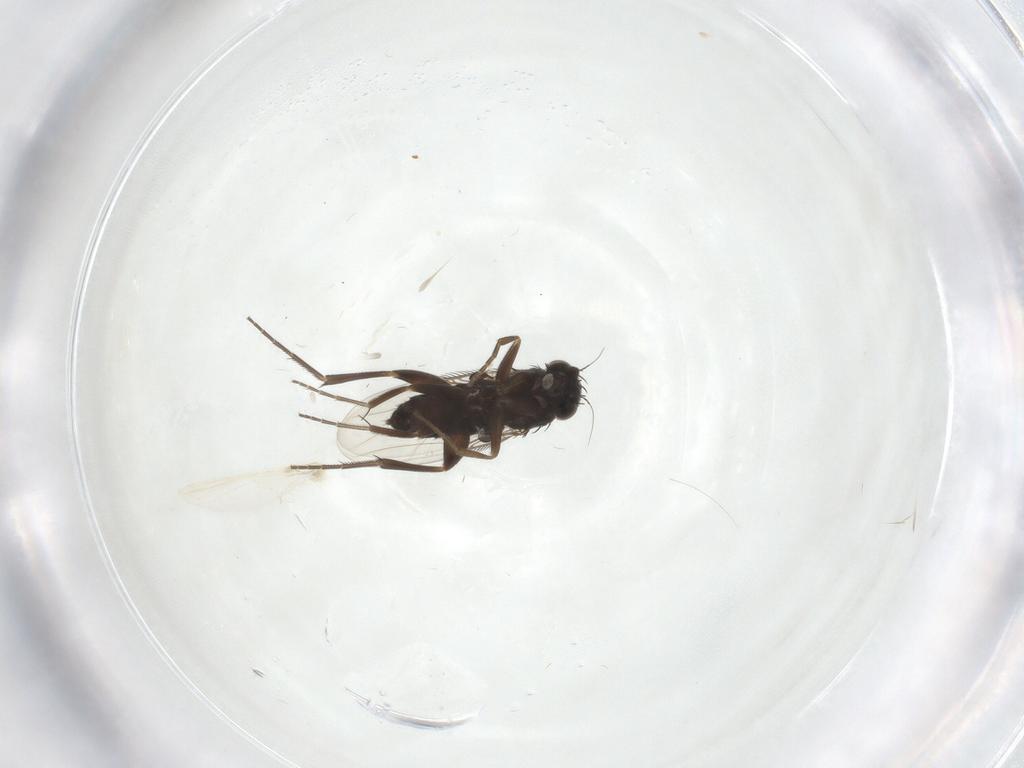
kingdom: Animalia
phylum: Arthropoda
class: Insecta
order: Diptera
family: Phoridae
